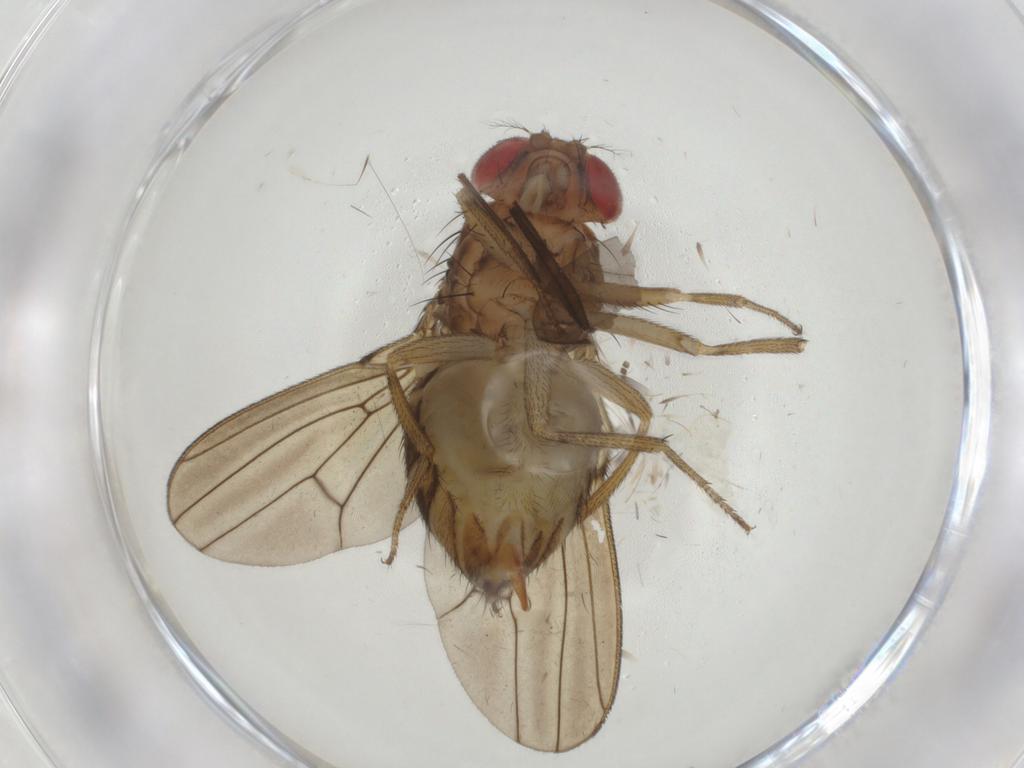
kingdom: Animalia
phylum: Arthropoda
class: Insecta
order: Diptera
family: Drosophilidae
